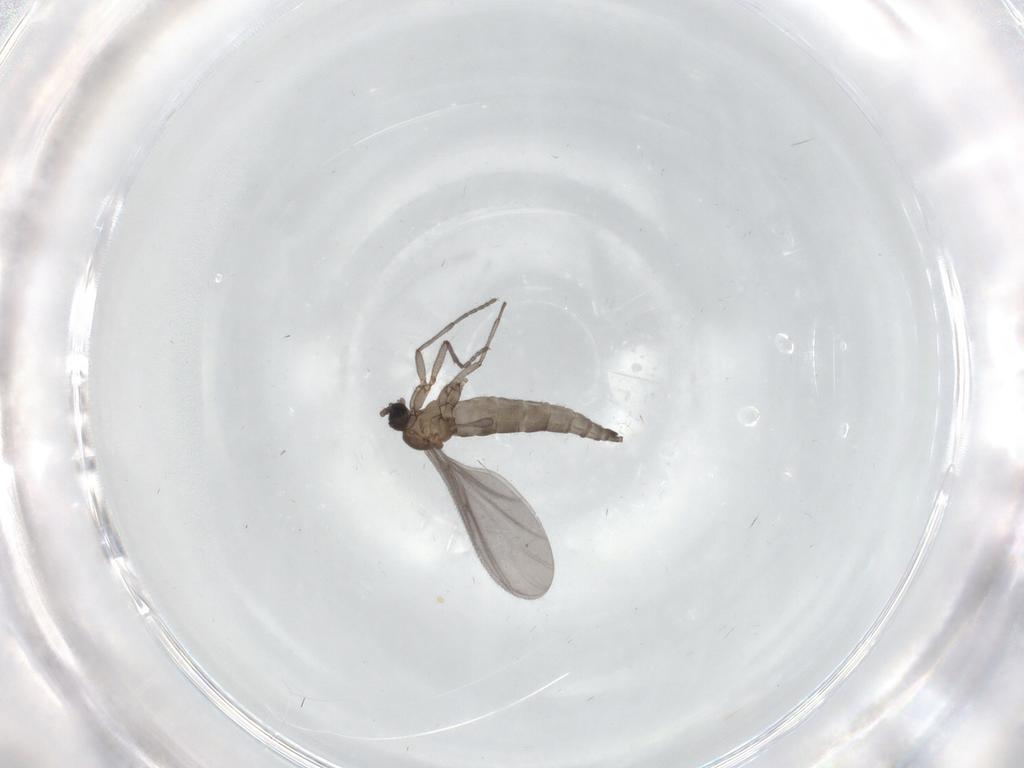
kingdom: Animalia
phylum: Arthropoda
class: Insecta
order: Diptera
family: Sciaridae
